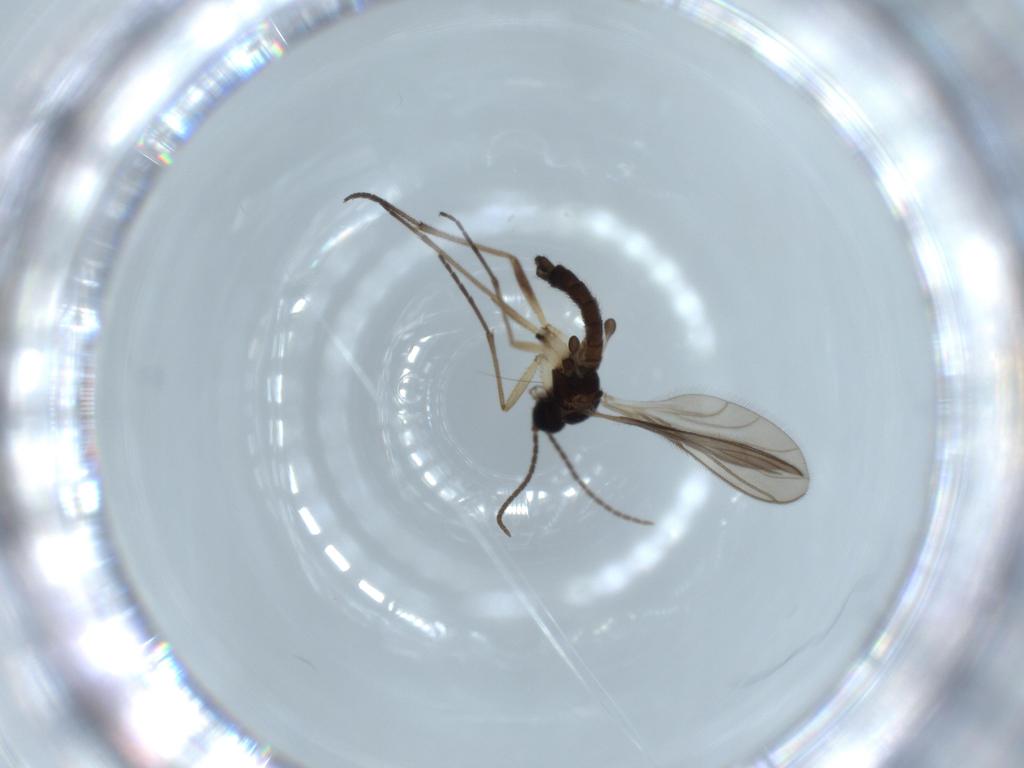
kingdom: Animalia
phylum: Arthropoda
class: Insecta
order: Diptera
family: Sciaridae
